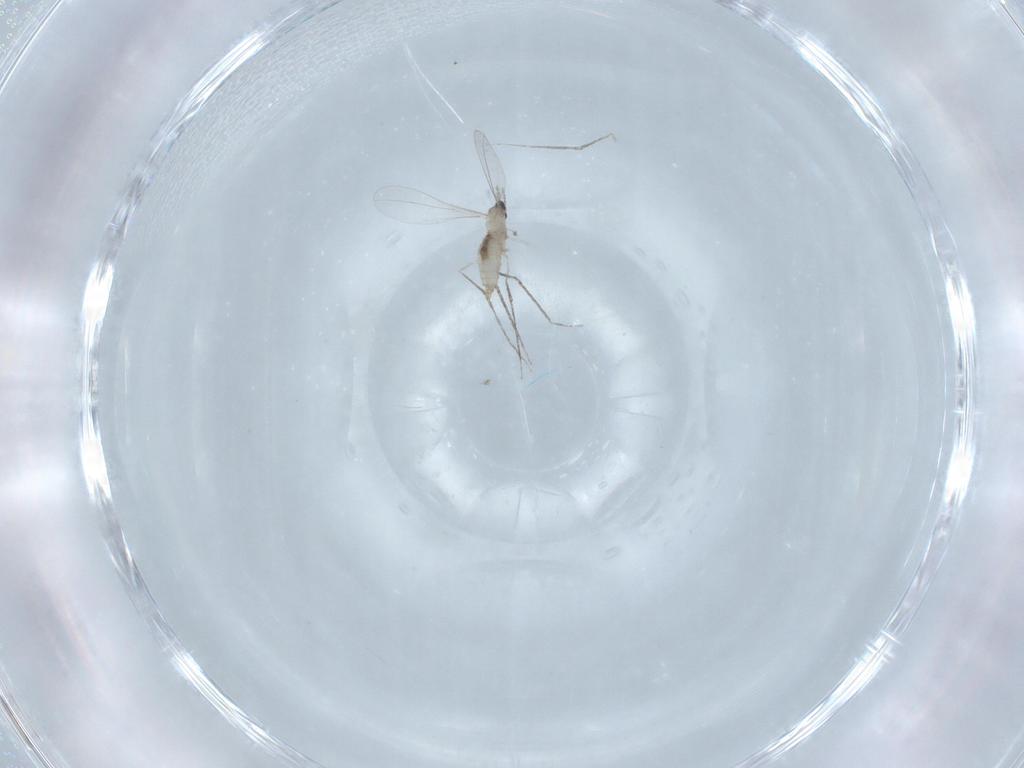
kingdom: Animalia
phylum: Arthropoda
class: Insecta
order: Diptera
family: Cecidomyiidae
